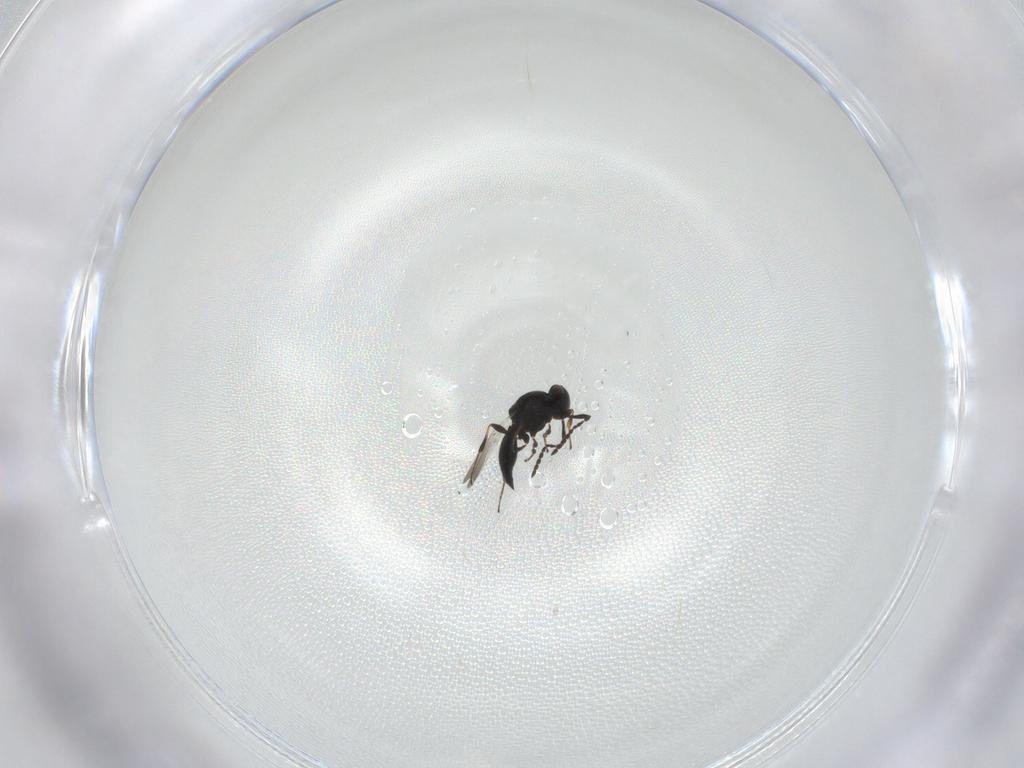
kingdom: Animalia
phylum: Arthropoda
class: Insecta
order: Hymenoptera
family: Platygastridae
